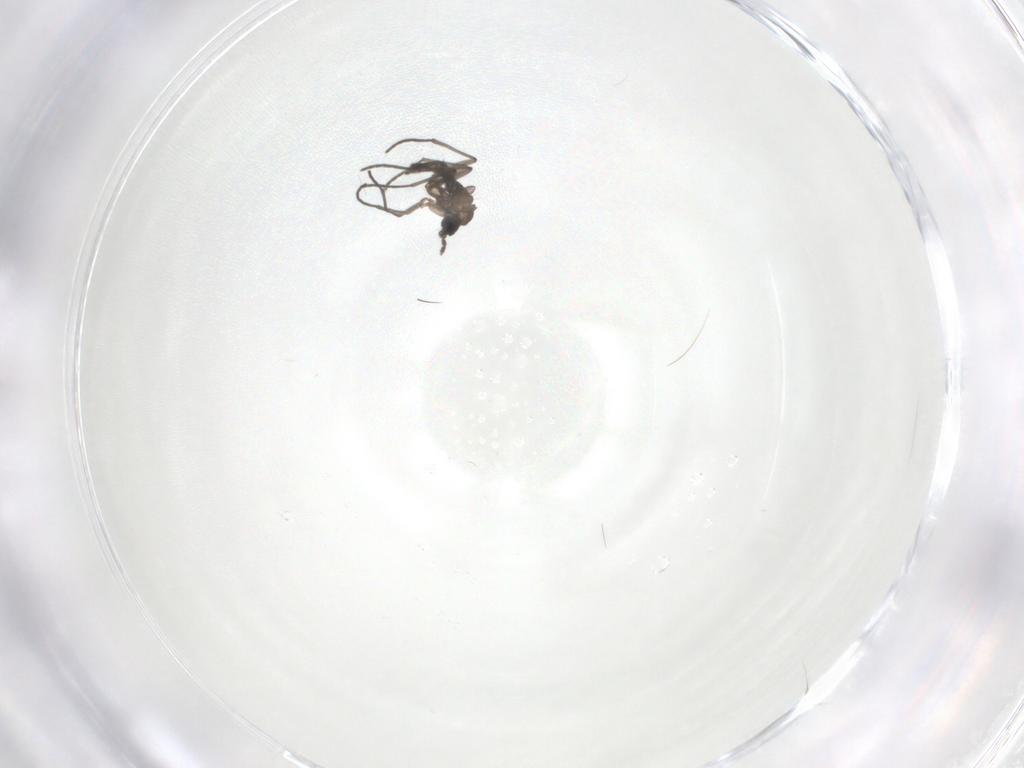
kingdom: Animalia
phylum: Arthropoda
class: Insecta
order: Diptera
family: Sciaridae
